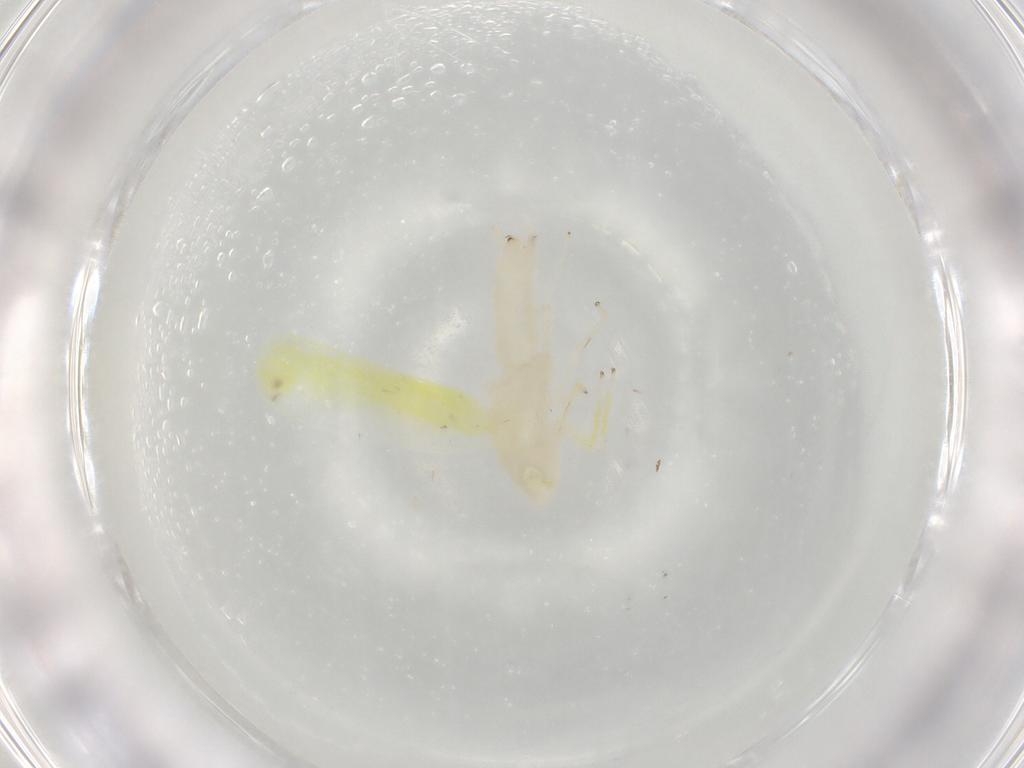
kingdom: Animalia
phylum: Arthropoda
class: Insecta
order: Hemiptera
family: Cicadellidae
